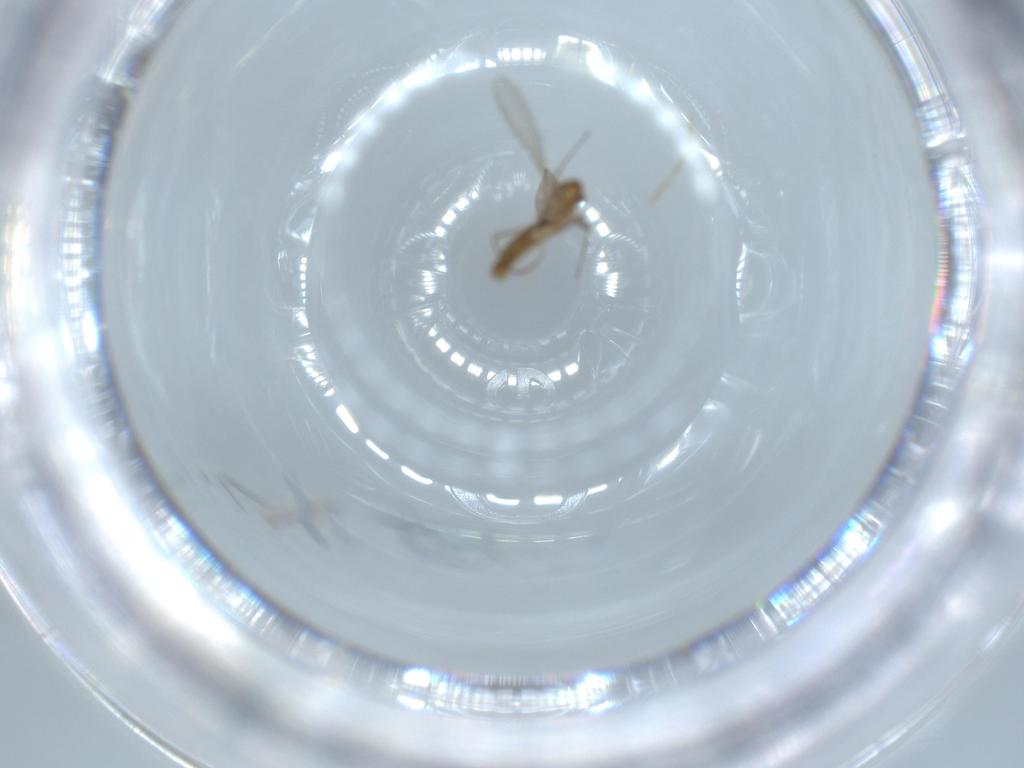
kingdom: Animalia
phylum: Arthropoda
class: Insecta
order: Diptera
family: Chironomidae
